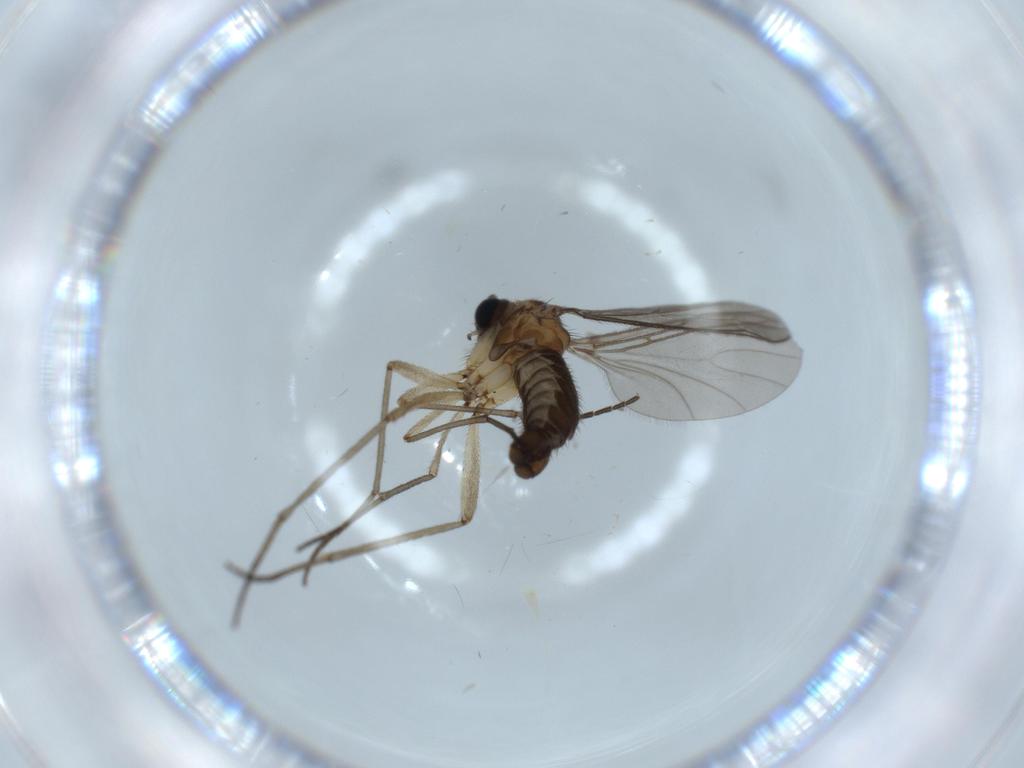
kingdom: Animalia
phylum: Arthropoda
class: Insecta
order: Diptera
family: Sciaridae
